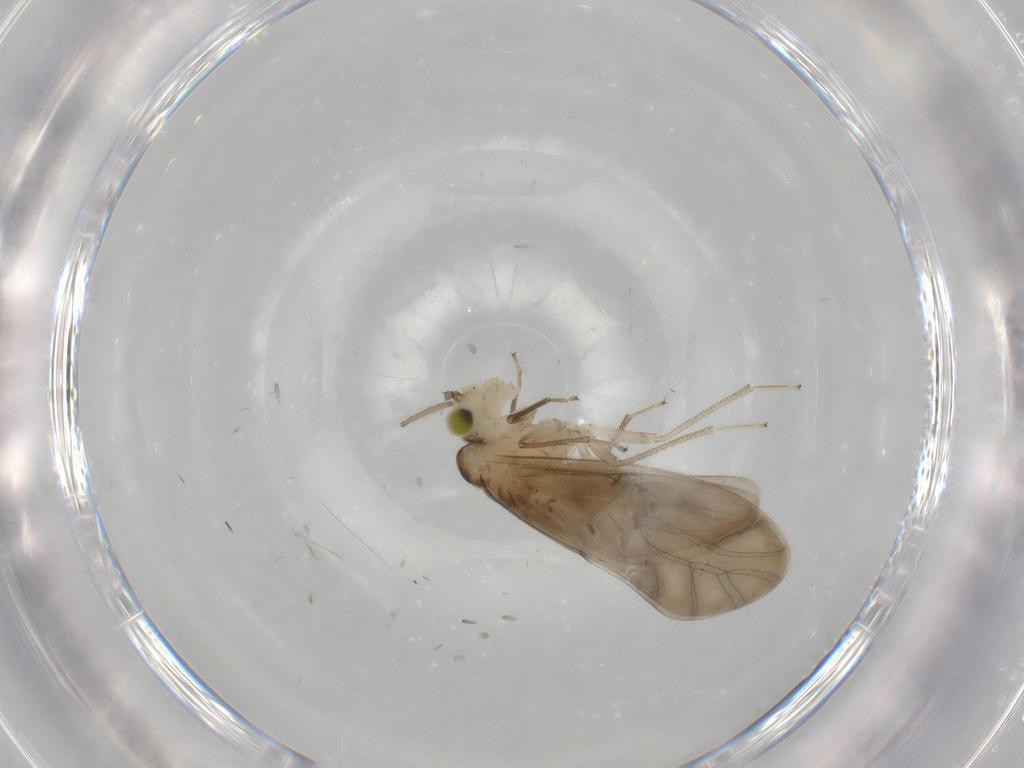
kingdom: Animalia
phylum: Arthropoda
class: Insecta
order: Psocodea
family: Caeciliusidae
